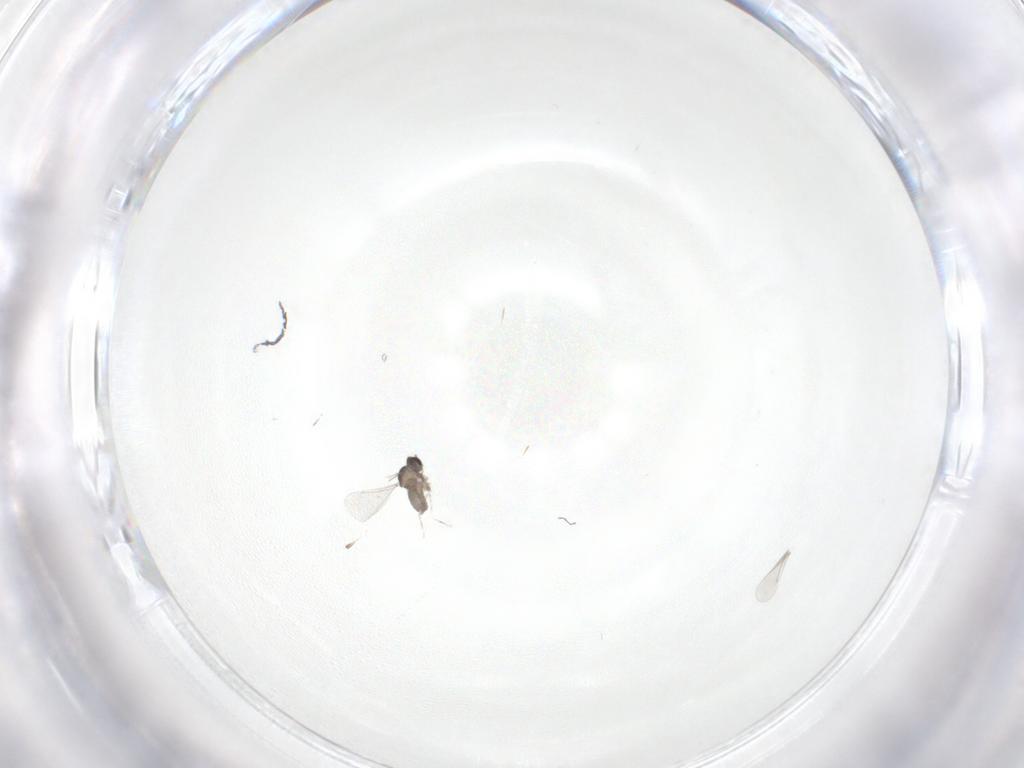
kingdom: Animalia
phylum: Arthropoda
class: Insecta
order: Diptera
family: Cecidomyiidae
